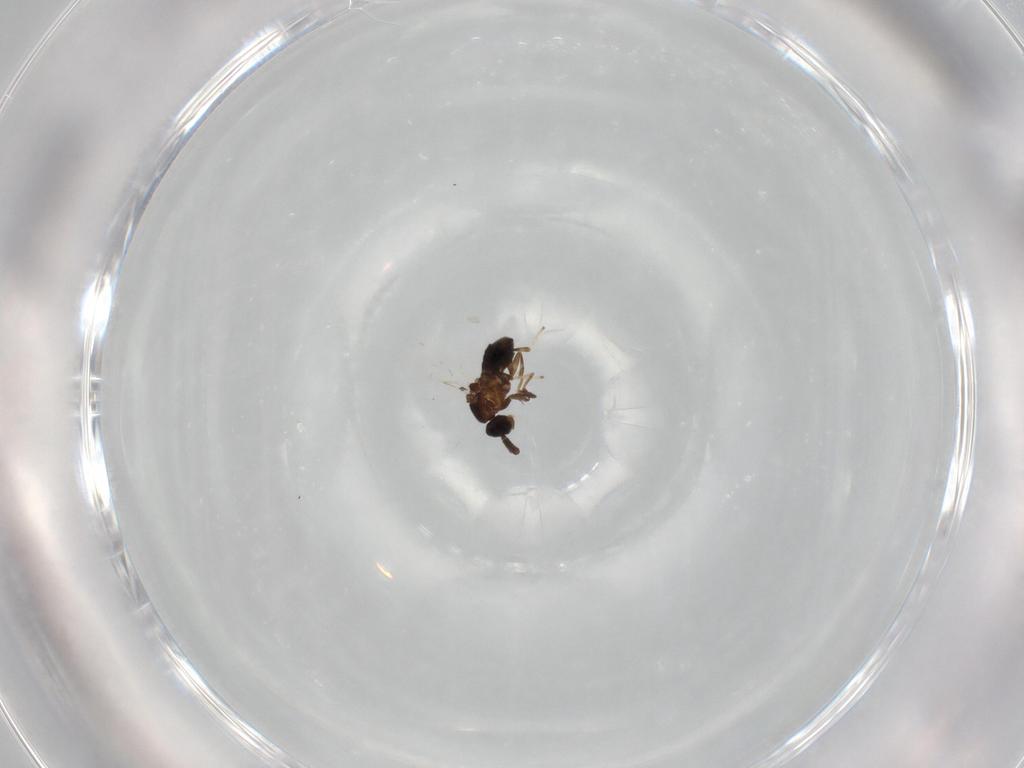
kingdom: Animalia
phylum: Arthropoda
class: Insecta
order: Diptera
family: Scatopsidae
